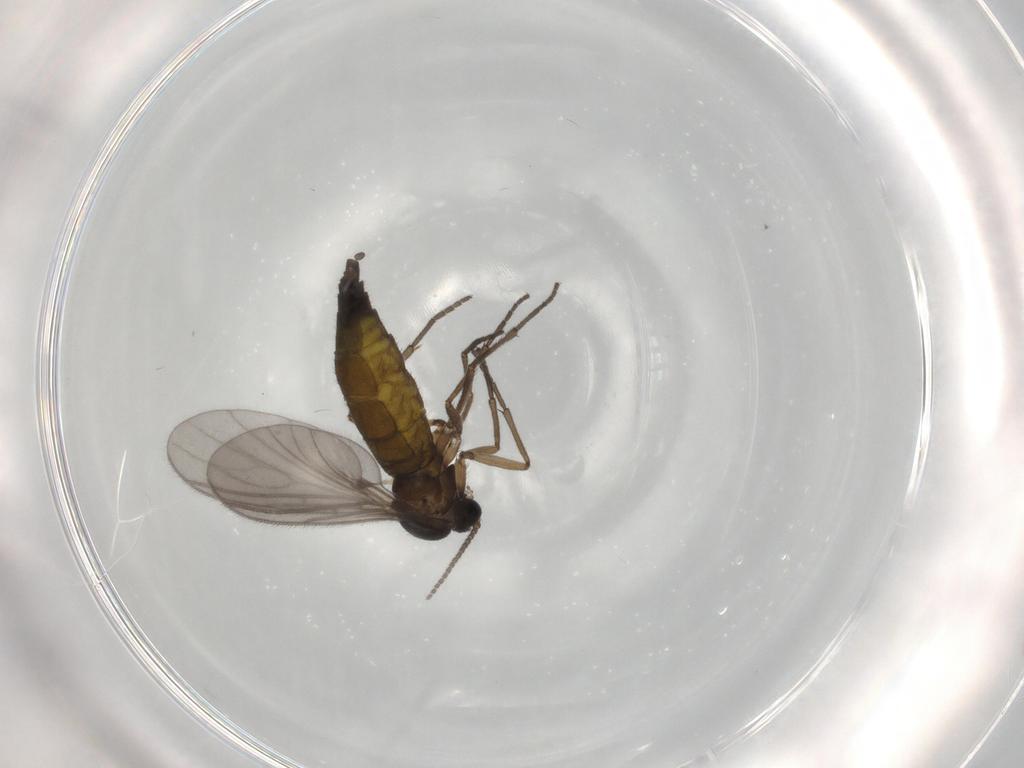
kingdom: Animalia
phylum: Arthropoda
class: Insecta
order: Diptera
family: Sciaridae
